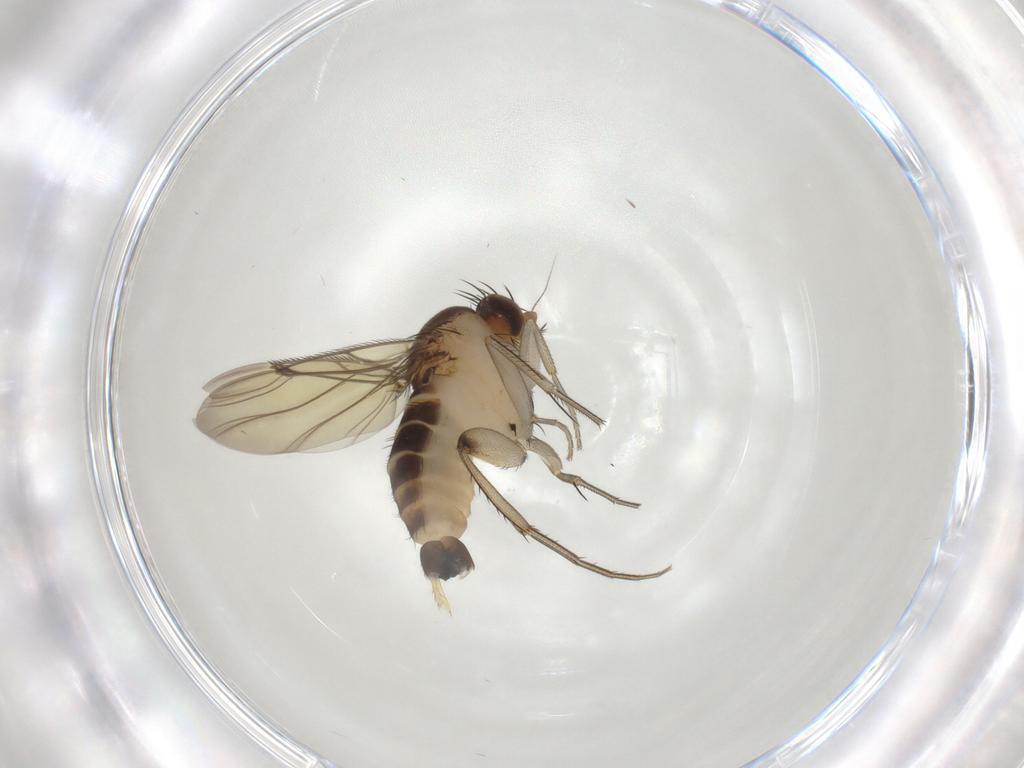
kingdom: Animalia
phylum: Arthropoda
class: Insecta
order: Diptera
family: Phoridae
